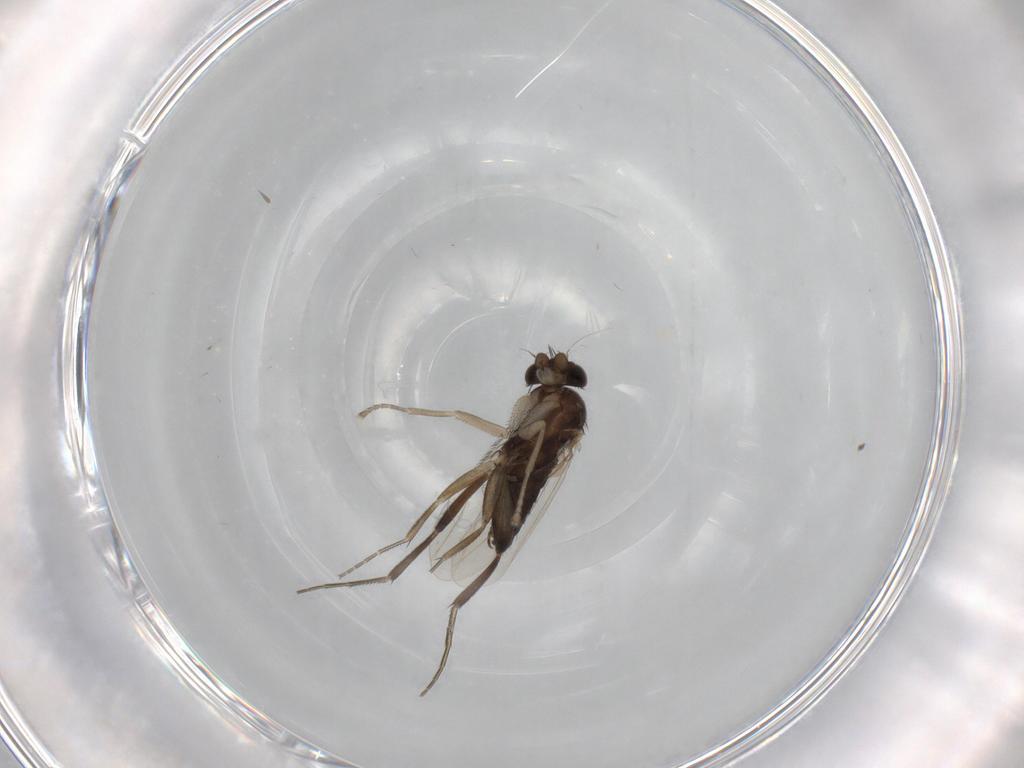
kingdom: Animalia
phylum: Arthropoda
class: Insecta
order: Diptera
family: Phoridae
